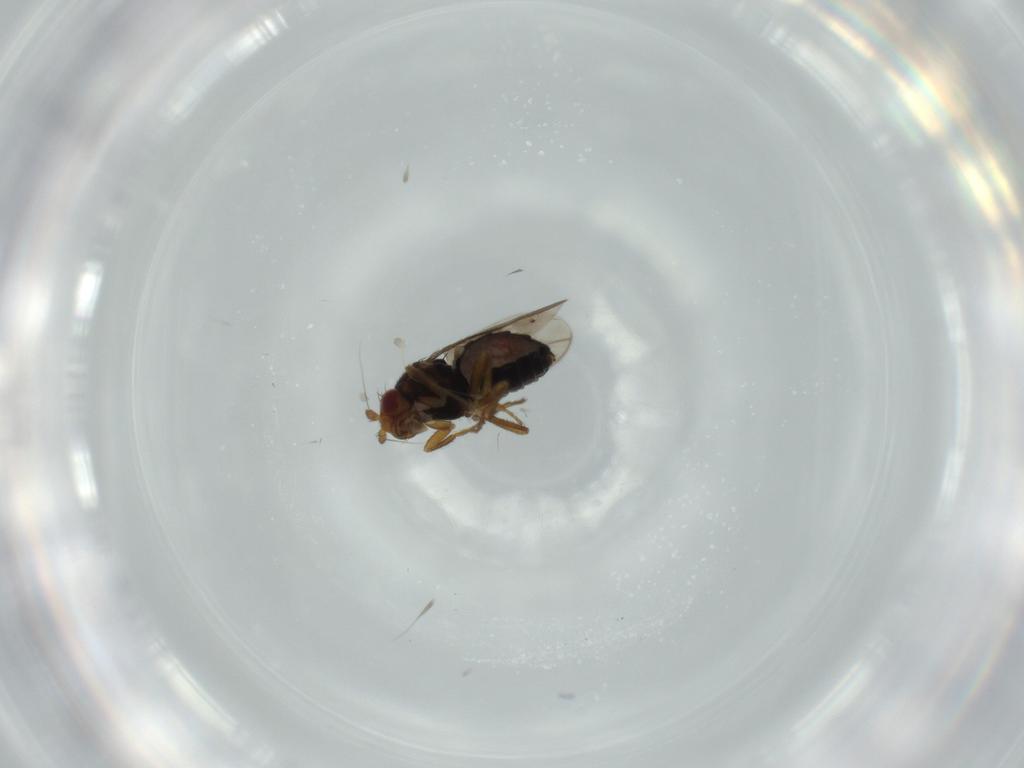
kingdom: Animalia
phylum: Arthropoda
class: Insecta
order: Diptera
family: Sphaeroceridae
